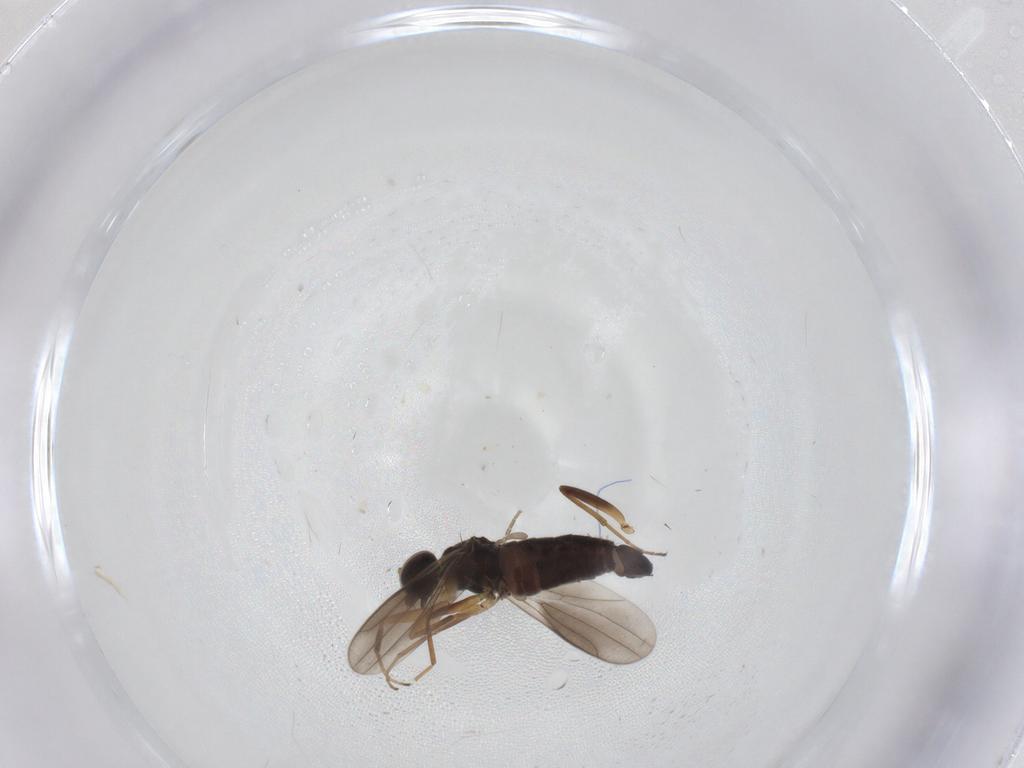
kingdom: Animalia
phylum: Arthropoda
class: Insecta
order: Diptera
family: Hybotidae
